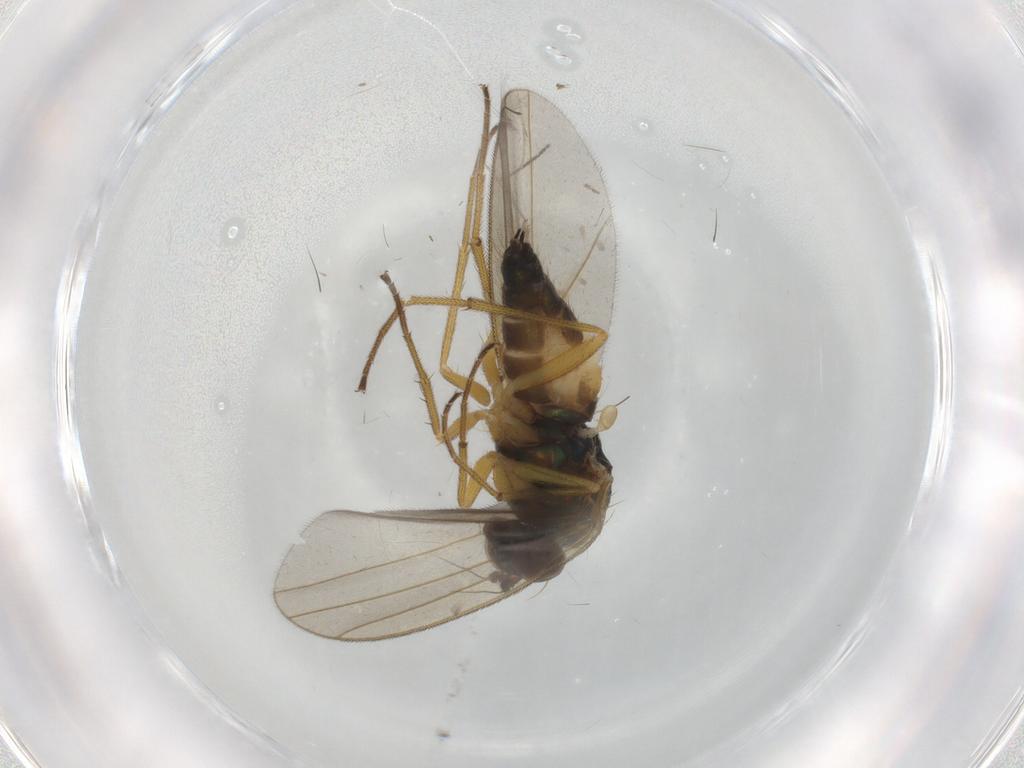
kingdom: Animalia
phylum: Arthropoda
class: Insecta
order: Diptera
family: Dolichopodidae
